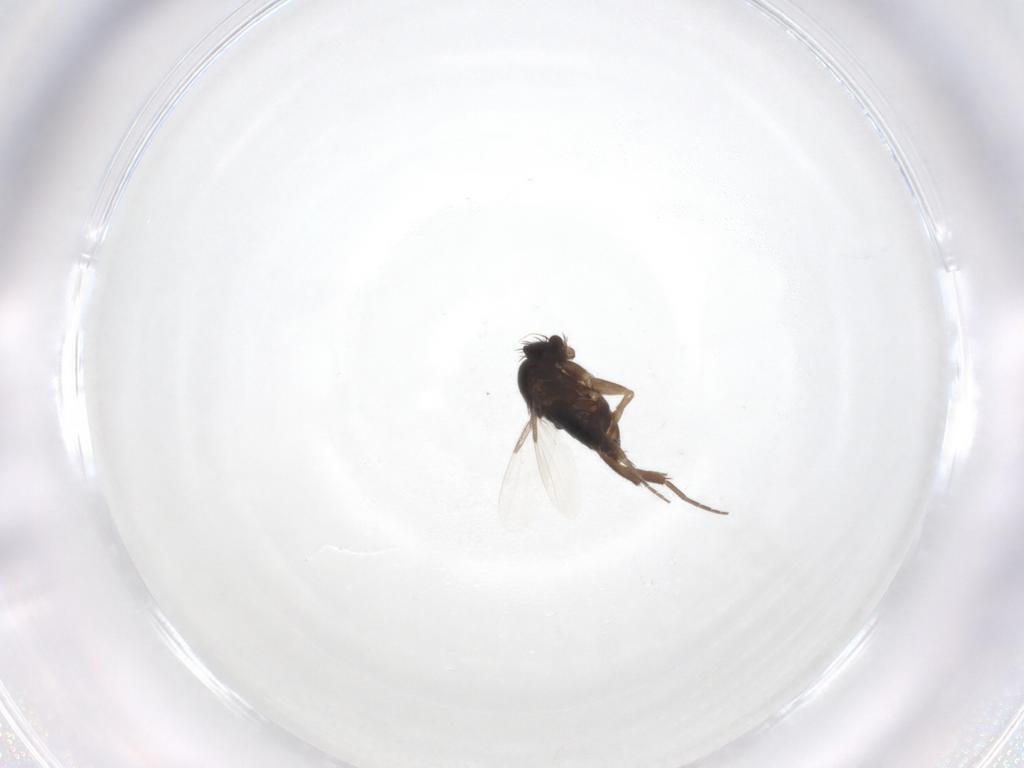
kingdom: Animalia
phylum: Arthropoda
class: Insecta
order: Diptera
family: Phoridae
